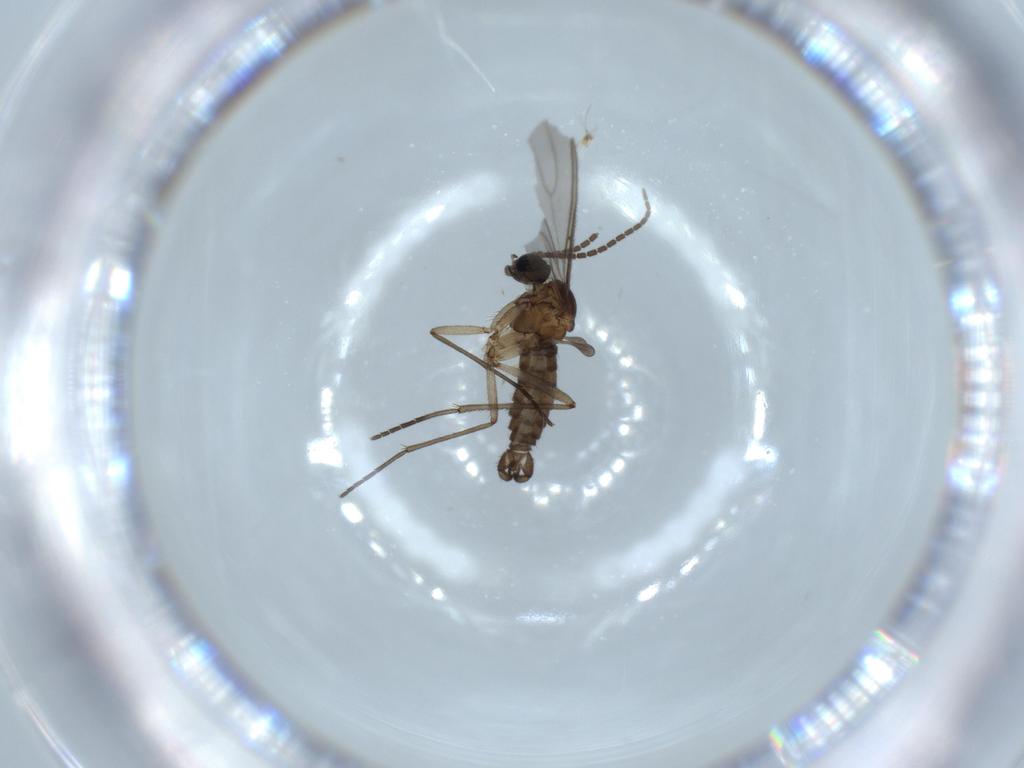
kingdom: Animalia
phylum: Arthropoda
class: Insecta
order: Diptera
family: Sciaridae
